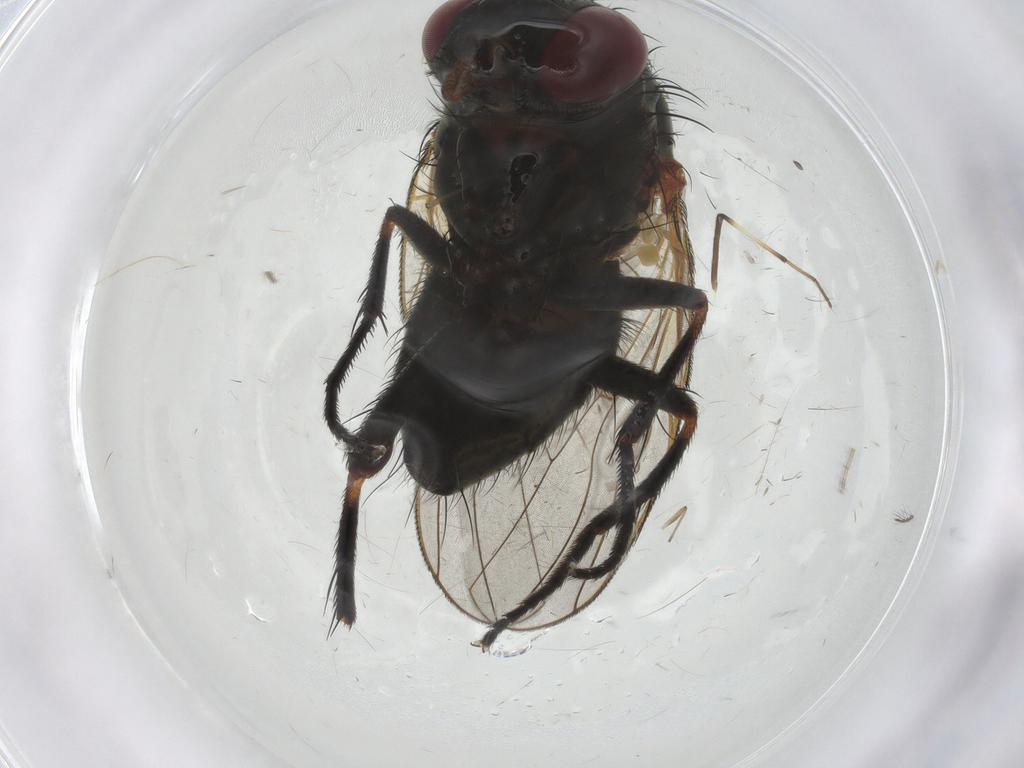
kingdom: Animalia
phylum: Arthropoda
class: Insecta
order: Diptera
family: Fannia
